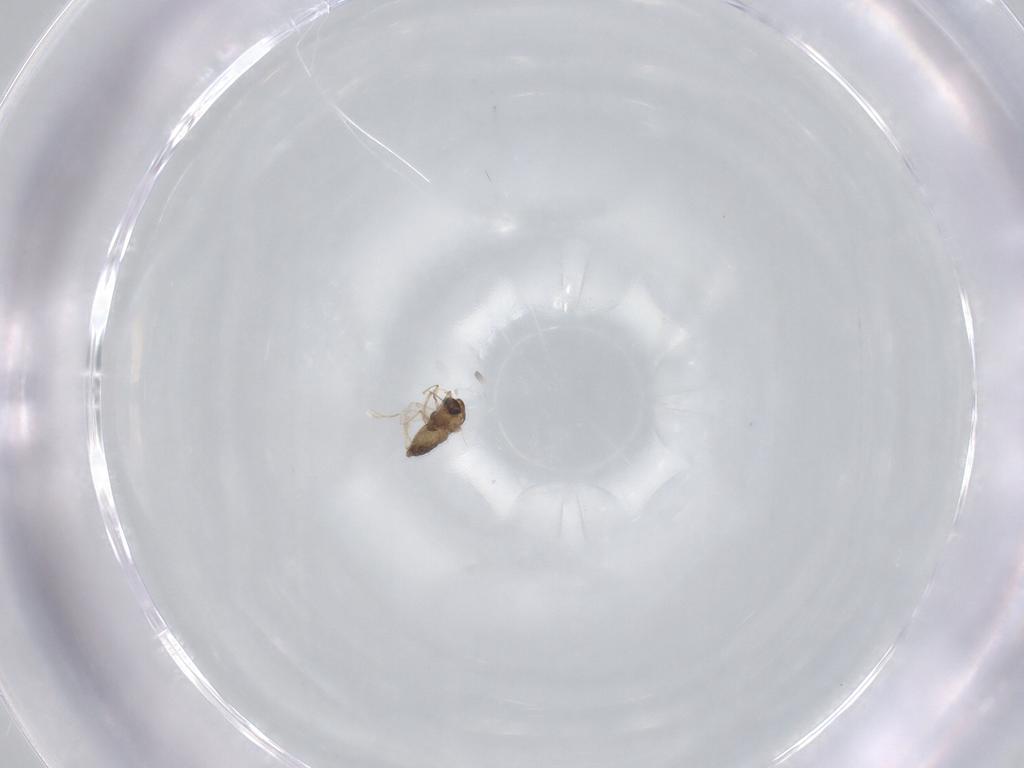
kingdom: Animalia
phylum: Arthropoda
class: Insecta
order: Diptera
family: Chironomidae
